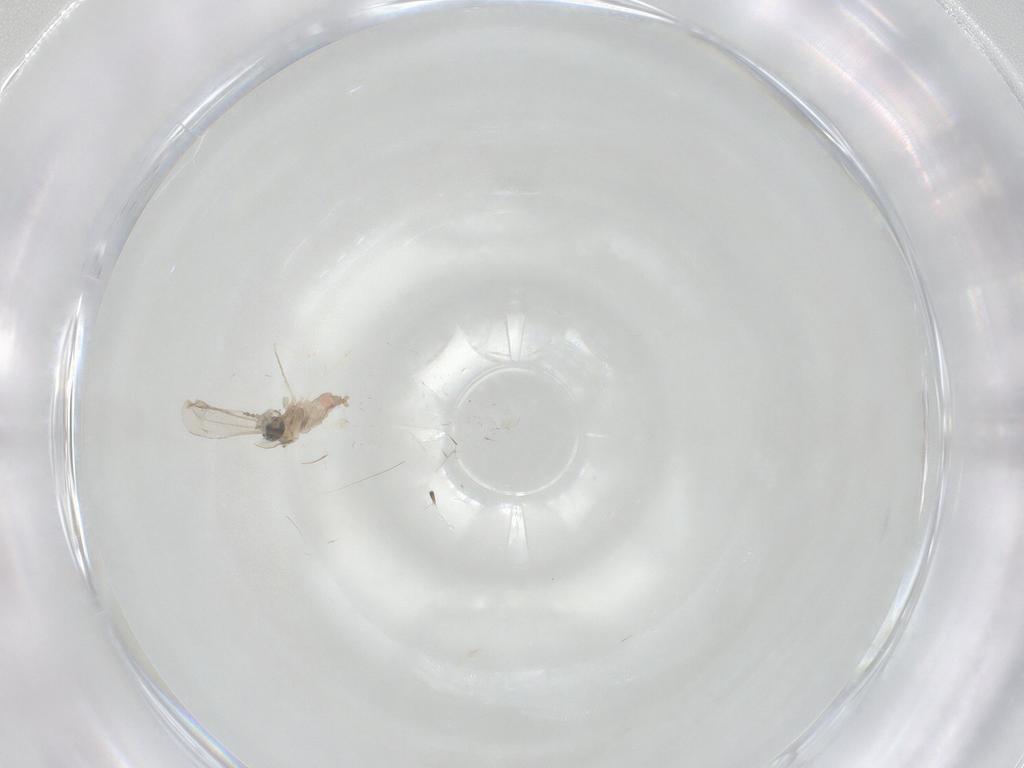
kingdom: Animalia
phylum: Arthropoda
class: Insecta
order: Diptera
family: Cecidomyiidae
